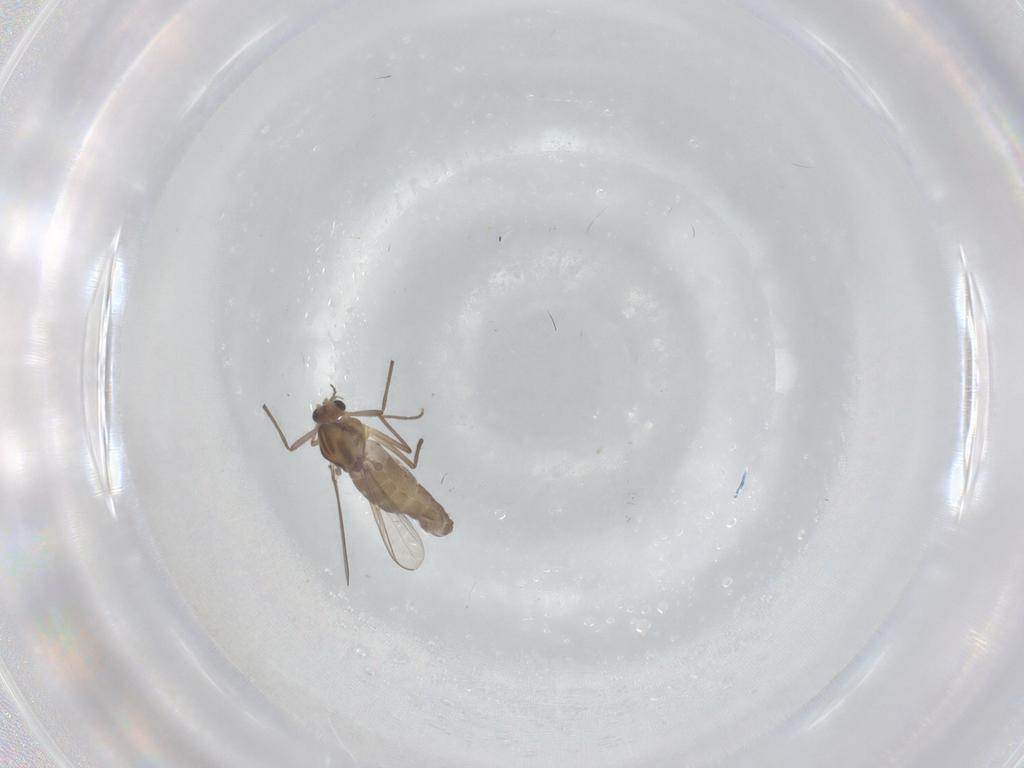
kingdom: Animalia
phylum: Arthropoda
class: Insecta
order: Diptera
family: Chironomidae
